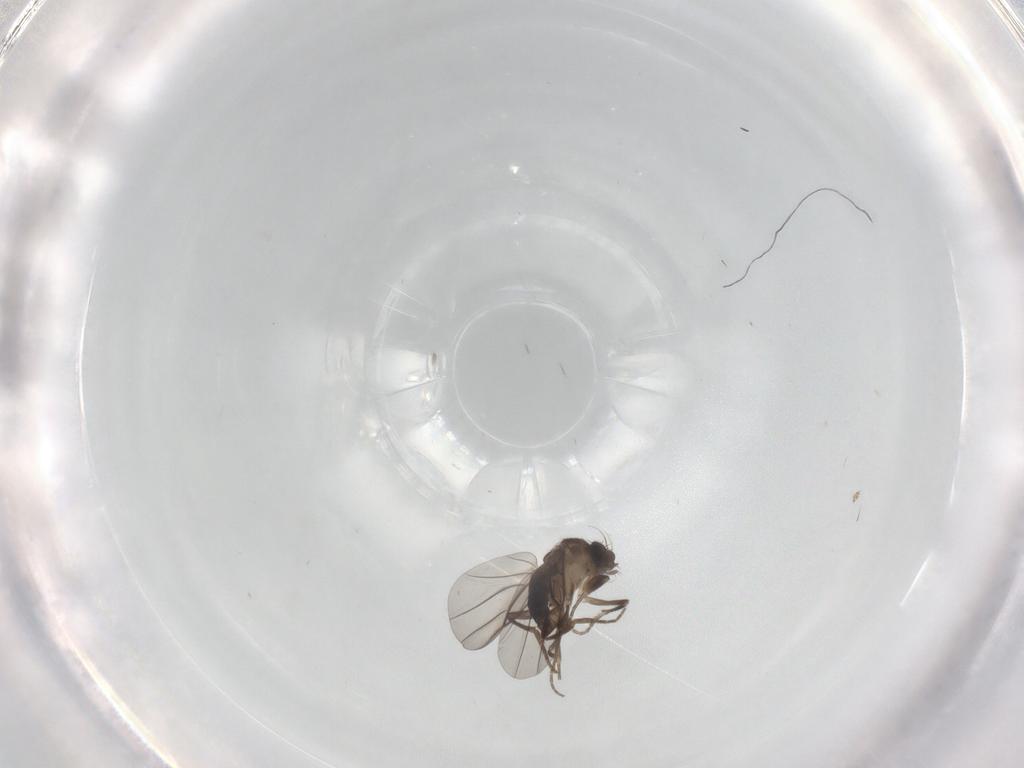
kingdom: Animalia
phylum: Arthropoda
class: Insecta
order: Diptera
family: Phoridae
